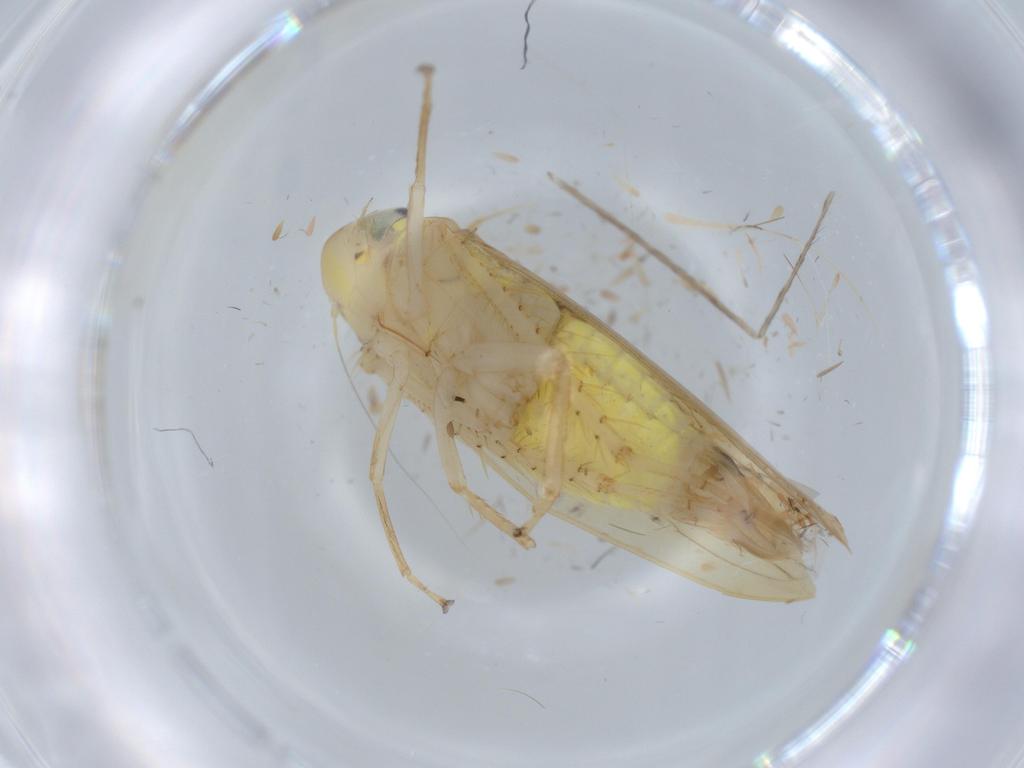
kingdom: Animalia
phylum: Arthropoda
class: Insecta
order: Hemiptera
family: Cicadellidae
